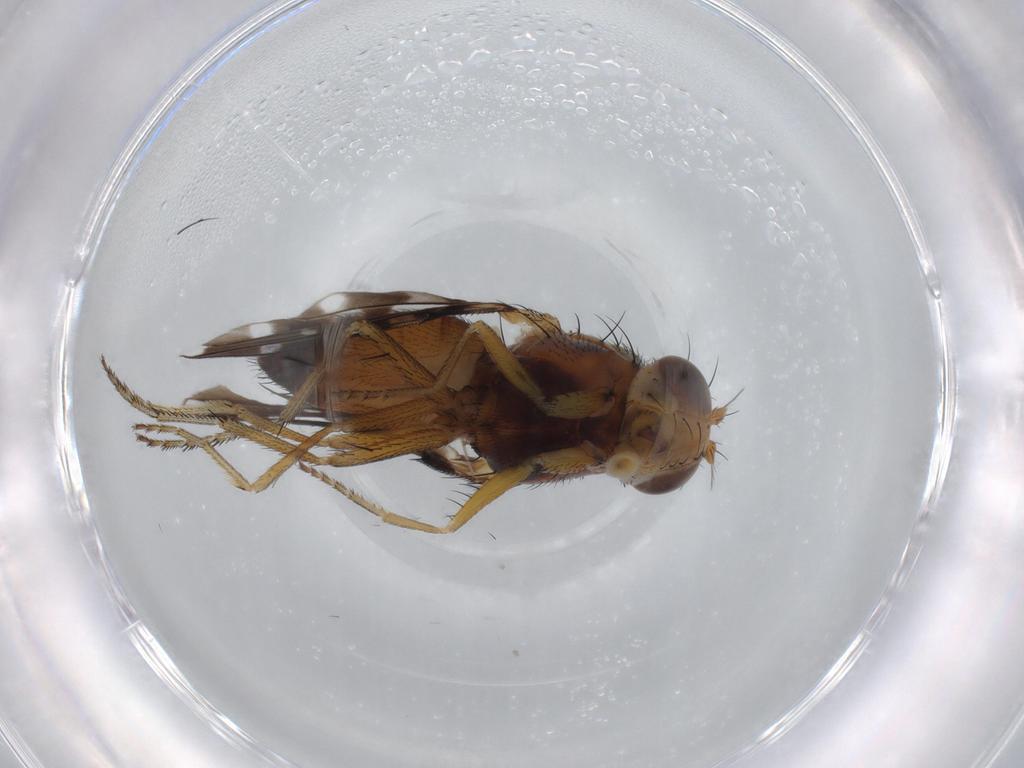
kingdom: Animalia
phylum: Arthropoda
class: Insecta
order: Diptera
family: Ephydridae
